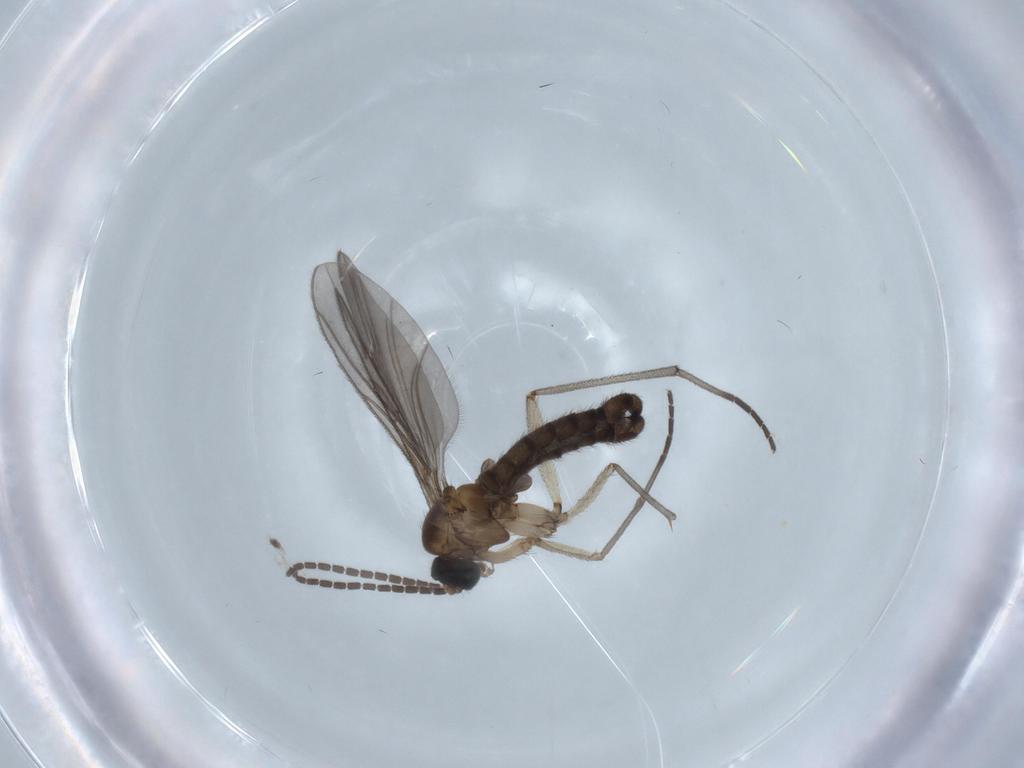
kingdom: Animalia
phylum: Arthropoda
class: Insecta
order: Diptera
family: Sciaridae
